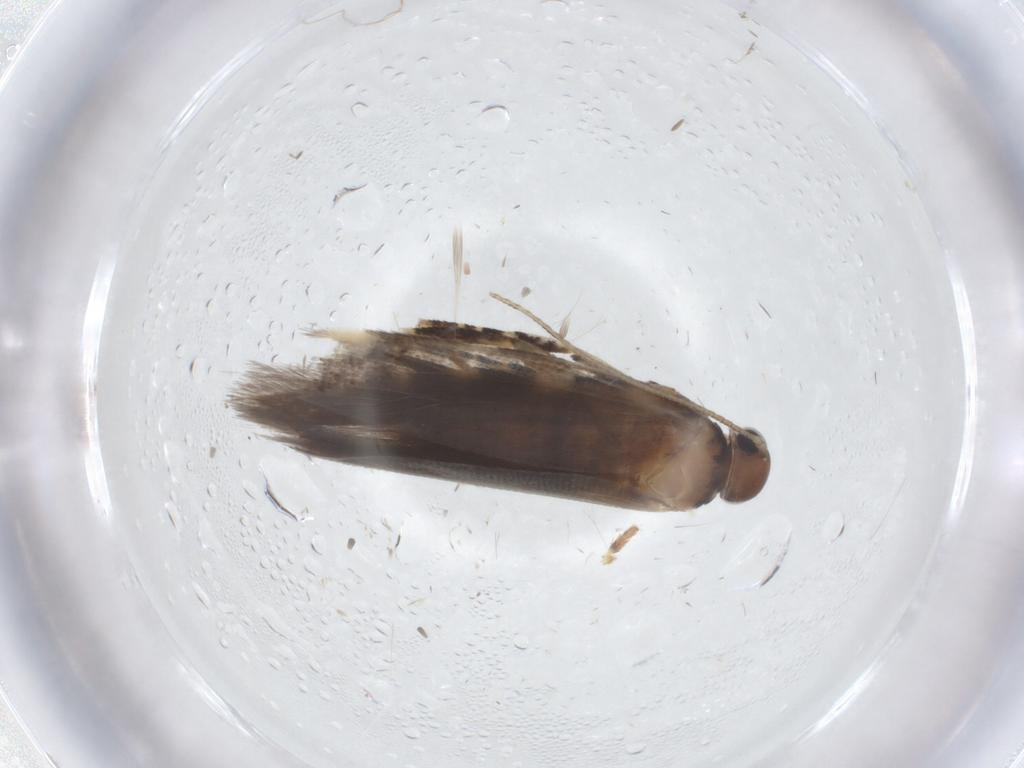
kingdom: Animalia
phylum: Arthropoda
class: Insecta
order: Lepidoptera
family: Gelechiidae
